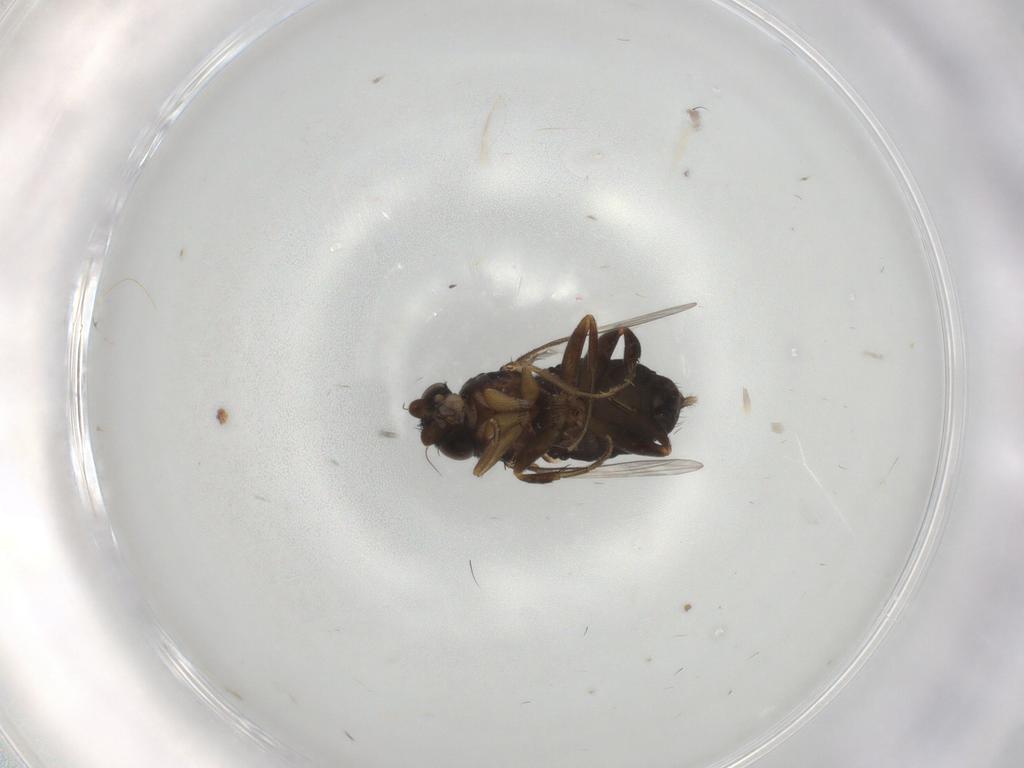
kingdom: Animalia
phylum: Arthropoda
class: Insecta
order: Diptera
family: Phoridae
